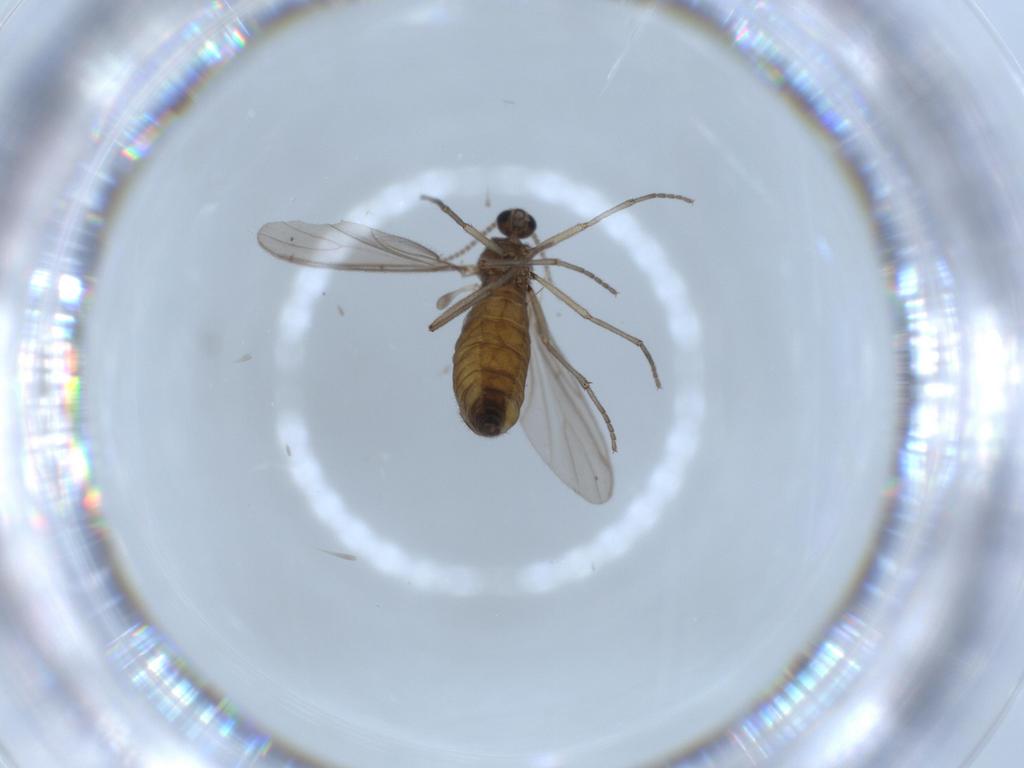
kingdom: Animalia
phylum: Arthropoda
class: Insecta
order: Diptera
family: Sciaridae
